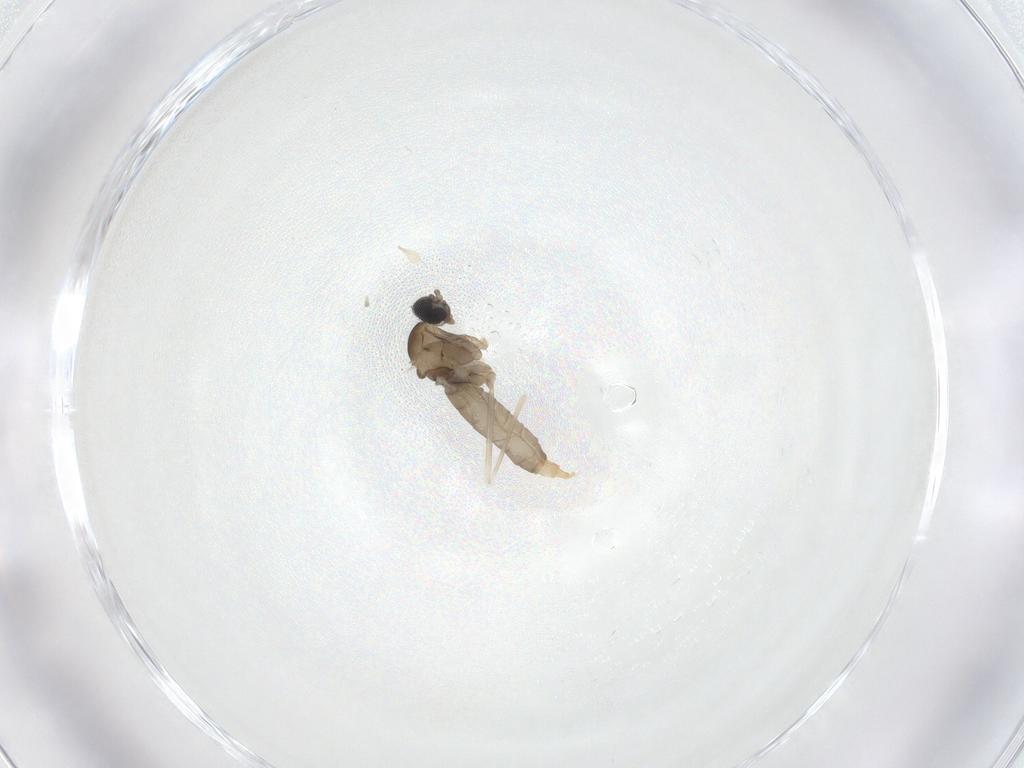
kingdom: Animalia
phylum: Arthropoda
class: Insecta
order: Diptera
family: Cecidomyiidae
